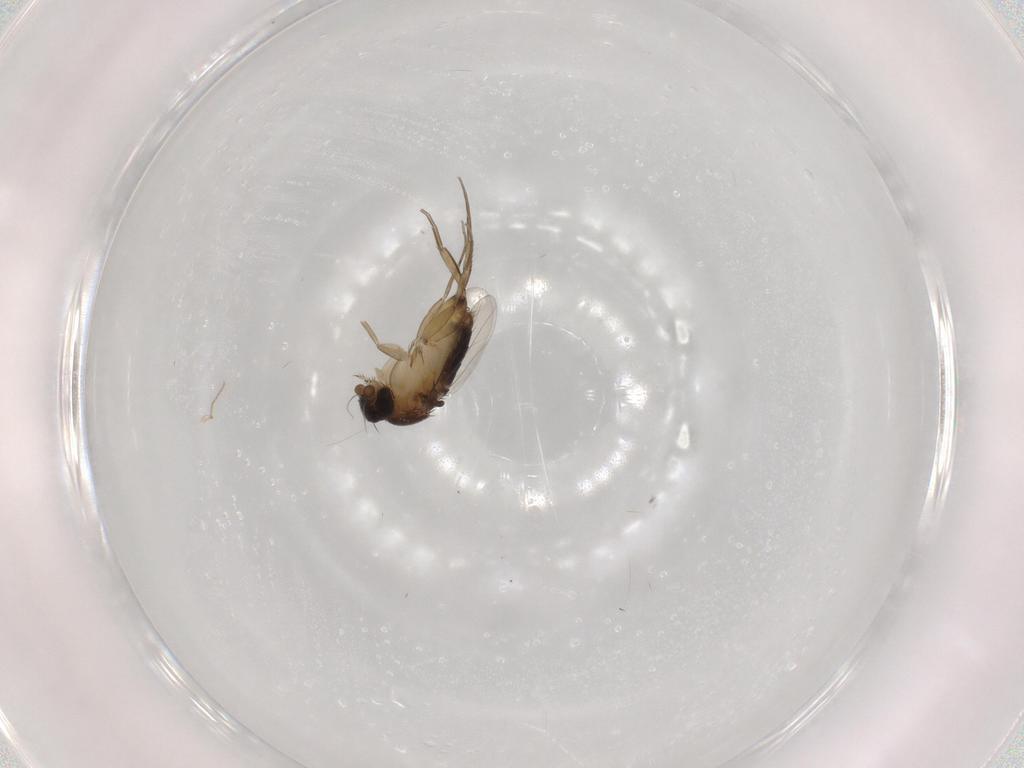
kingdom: Animalia
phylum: Arthropoda
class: Insecta
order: Diptera
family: Phoridae
